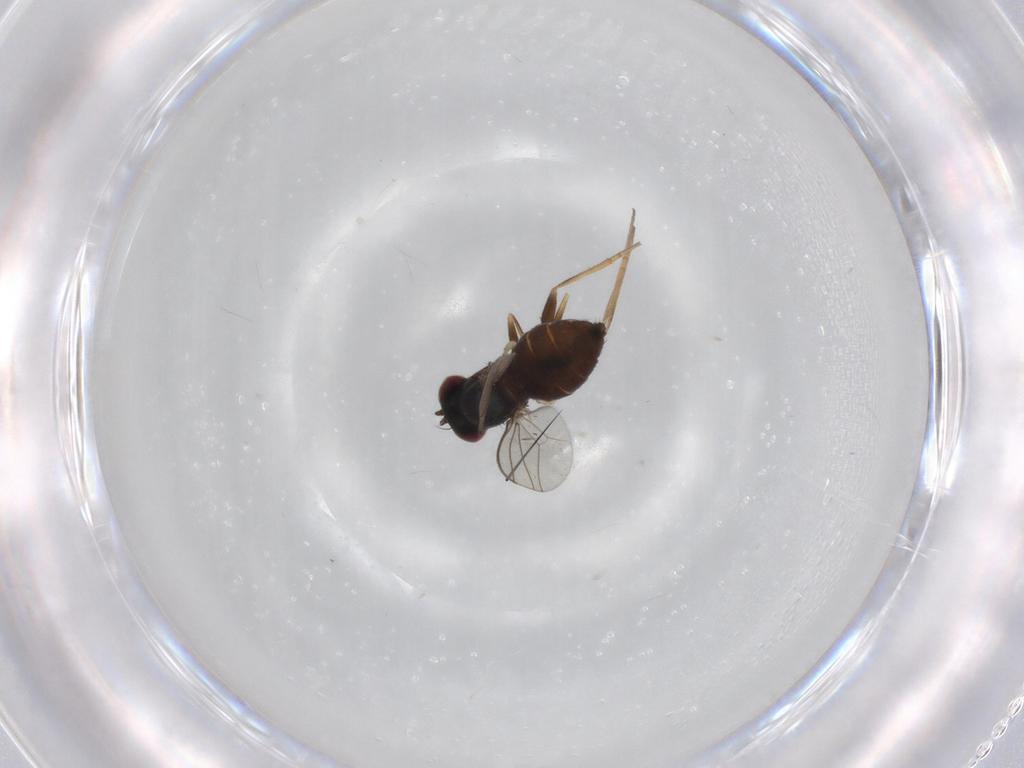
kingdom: Animalia
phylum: Arthropoda
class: Insecta
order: Diptera
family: Dolichopodidae
